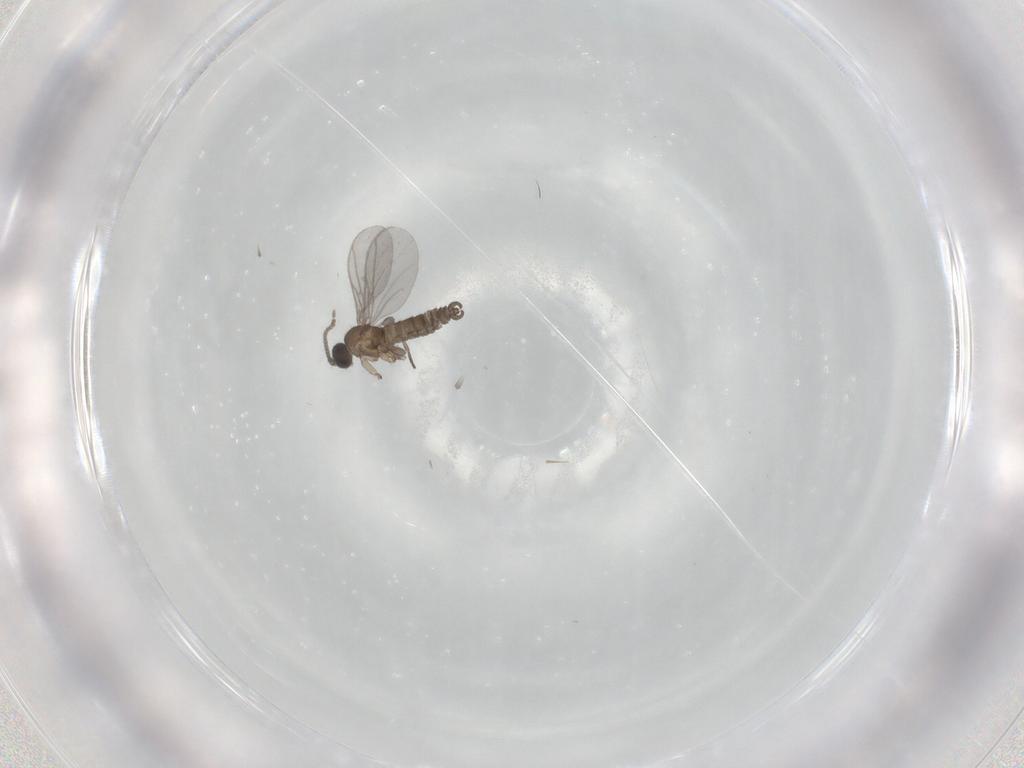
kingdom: Animalia
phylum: Arthropoda
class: Insecta
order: Diptera
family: Sciaridae
